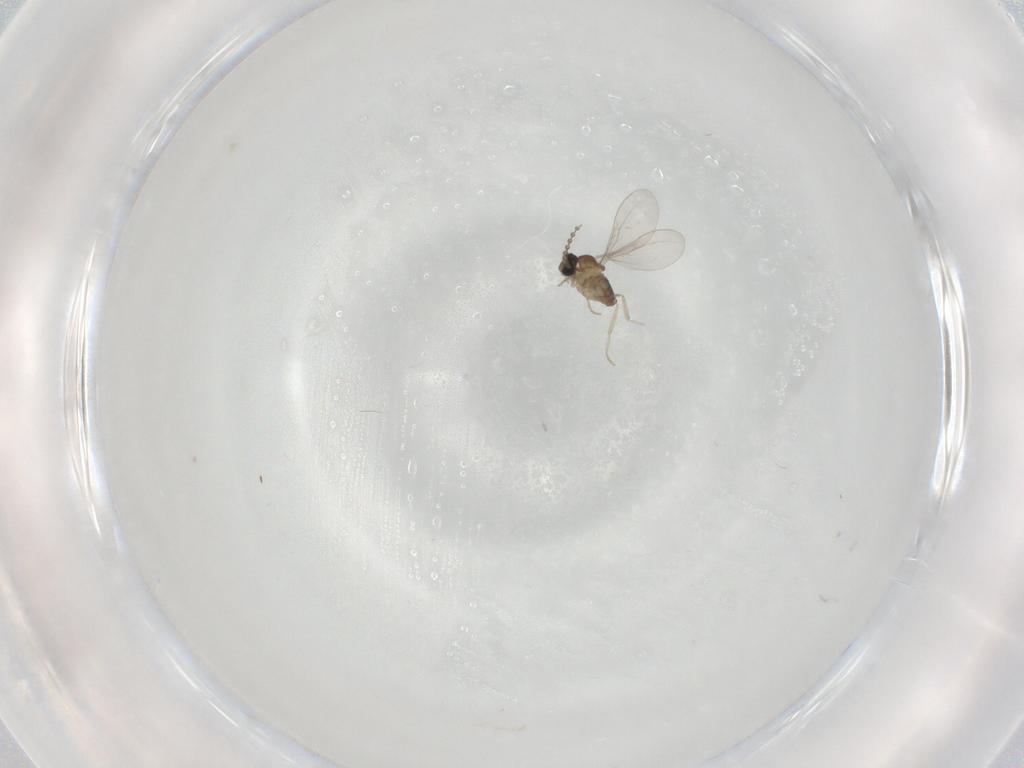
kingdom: Animalia
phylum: Arthropoda
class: Insecta
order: Diptera
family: Cecidomyiidae
